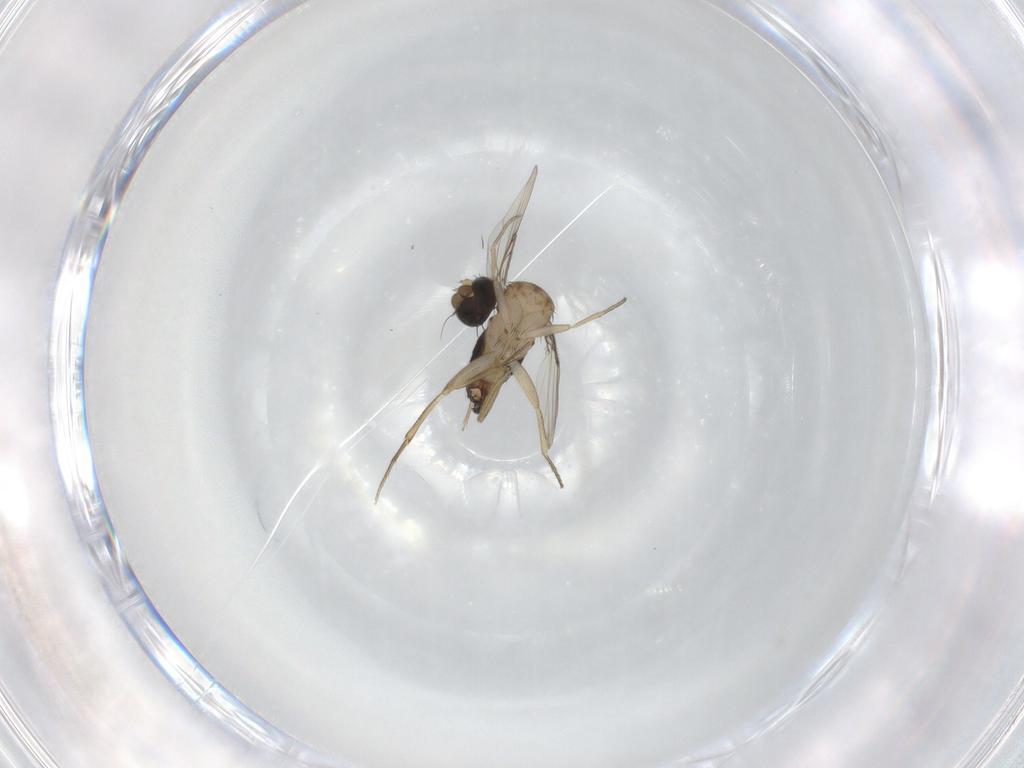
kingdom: Animalia
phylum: Arthropoda
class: Insecta
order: Diptera
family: Phoridae
